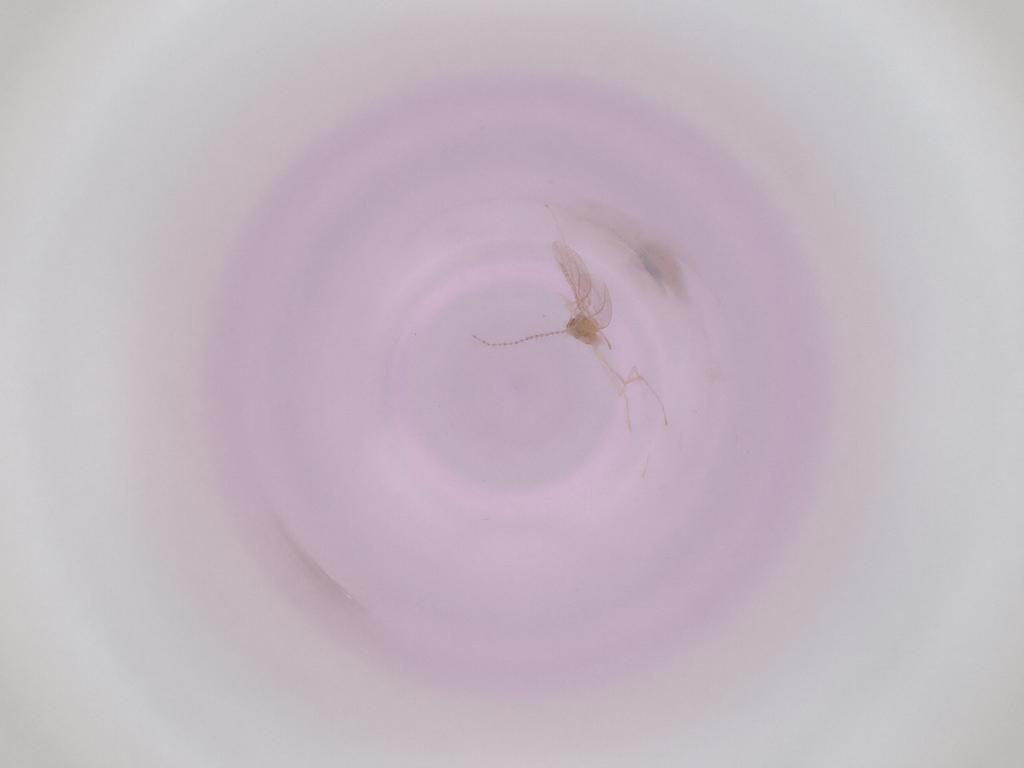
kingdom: Animalia
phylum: Arthropoda
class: Insecta
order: Diptera
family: Cecidomyiidae
